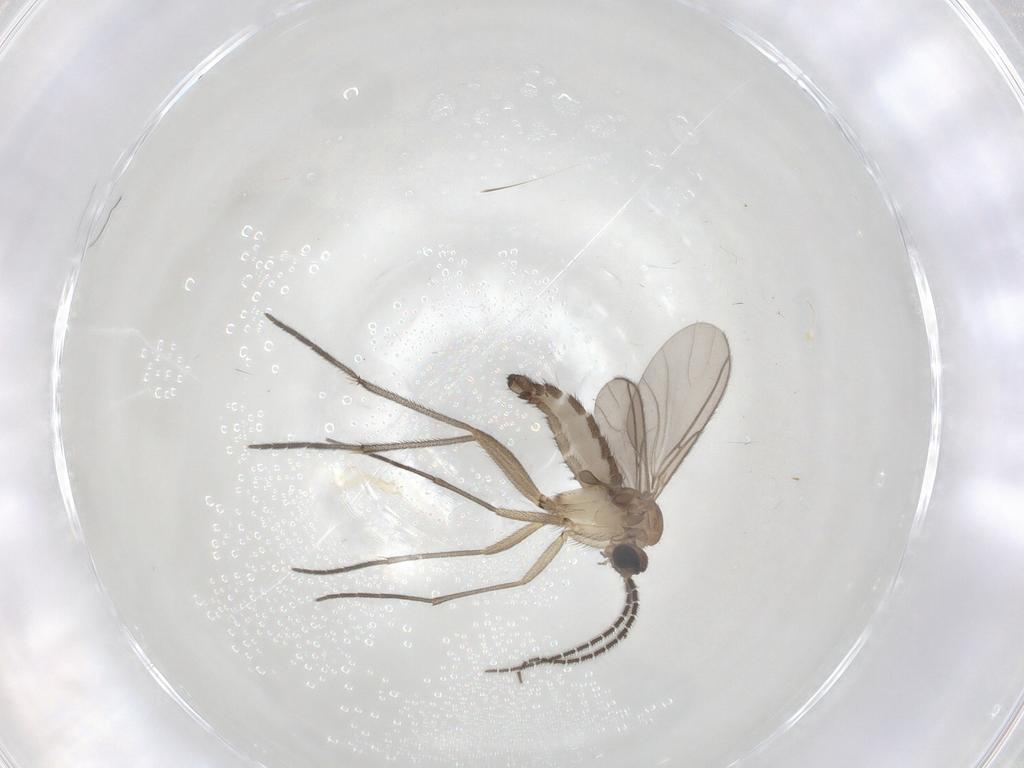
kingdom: Animalia
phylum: Arthropoda
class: Insecta
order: Diptera
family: Sciaridae
